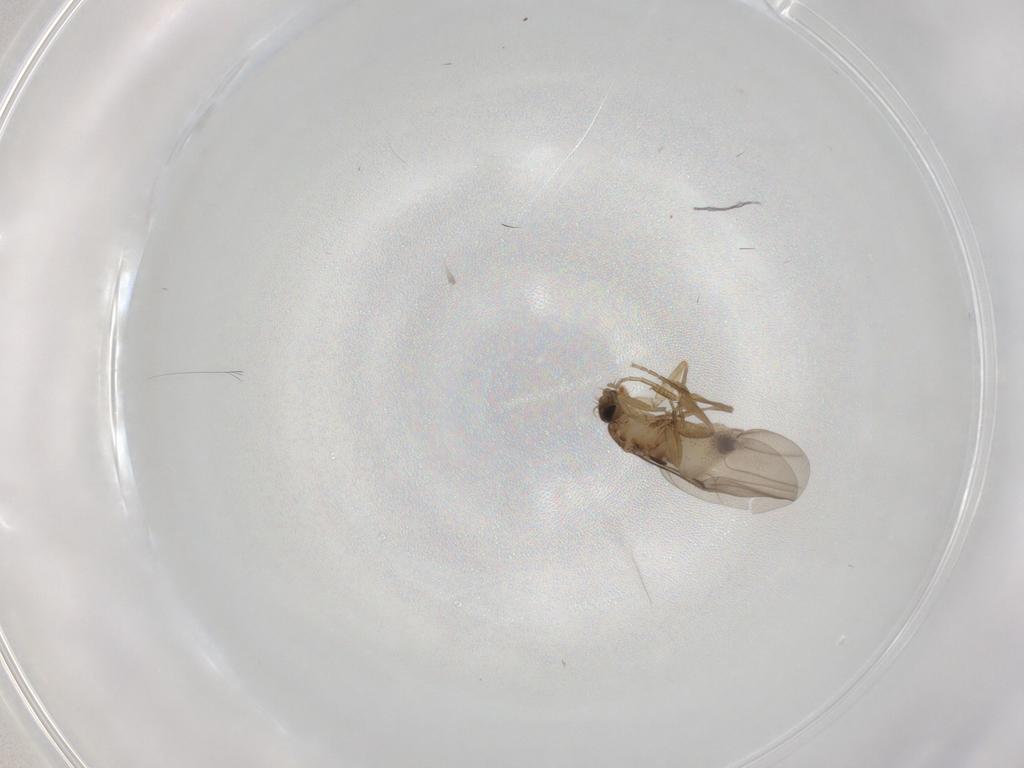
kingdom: Animalia
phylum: Arthropoda
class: Insecta
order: Diptera
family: Phoridae
